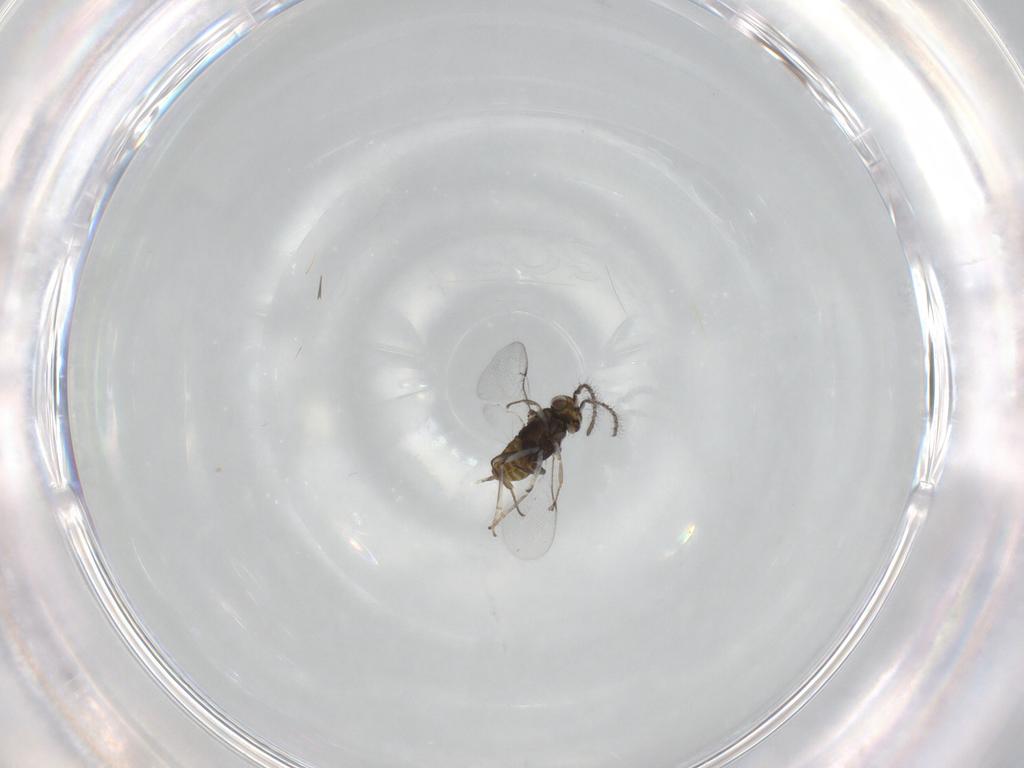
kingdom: Animalia
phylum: Arthropoda
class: Insecta
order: Hymenoptera
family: Encyrtidae
